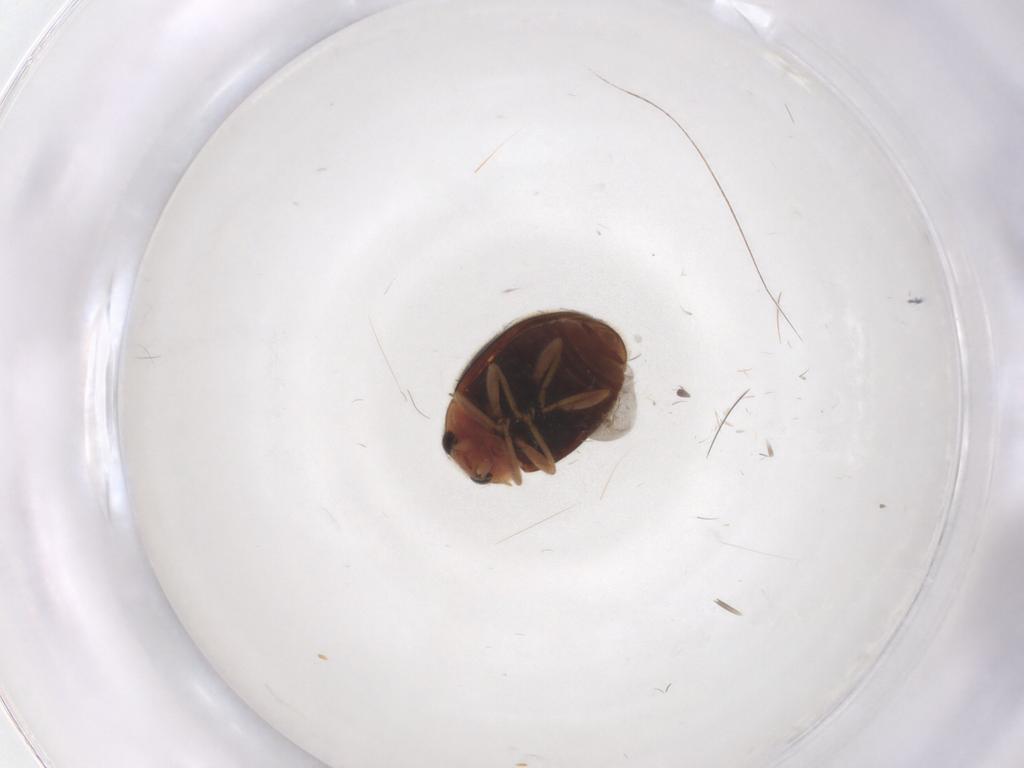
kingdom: Animalia
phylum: Arthropoda
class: Insecta
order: Coleoptera
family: Ptilodactylidae
